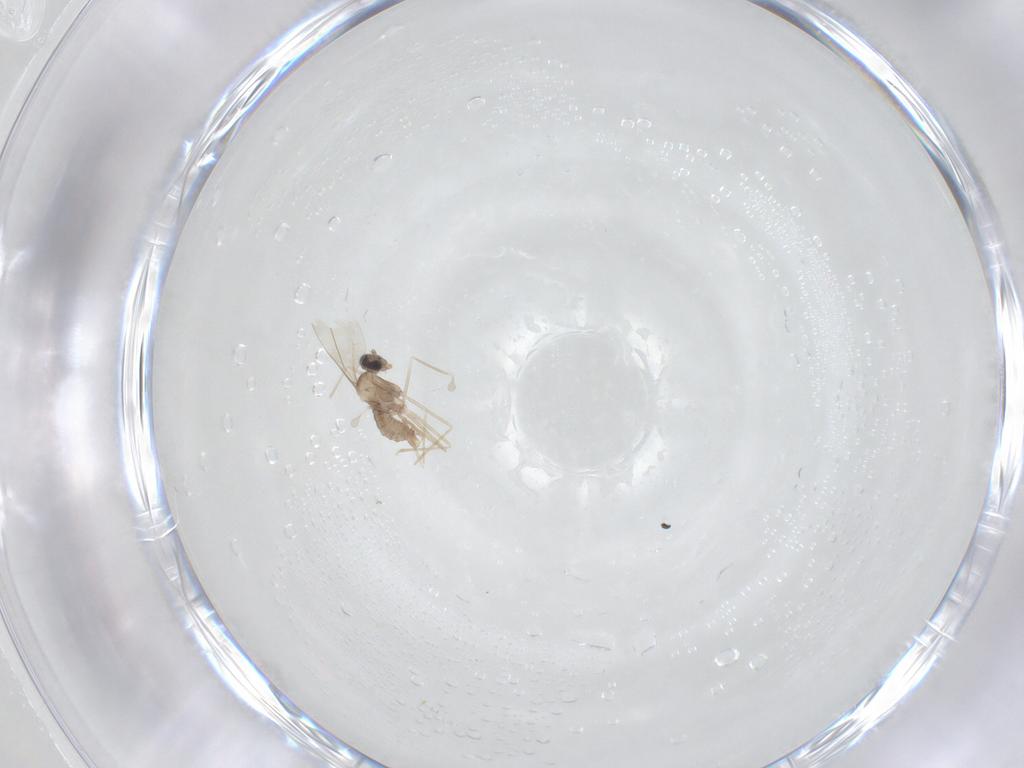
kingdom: Animalia
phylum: Arthropoda
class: Insecta
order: Diptera
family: Cecidomyiidae
